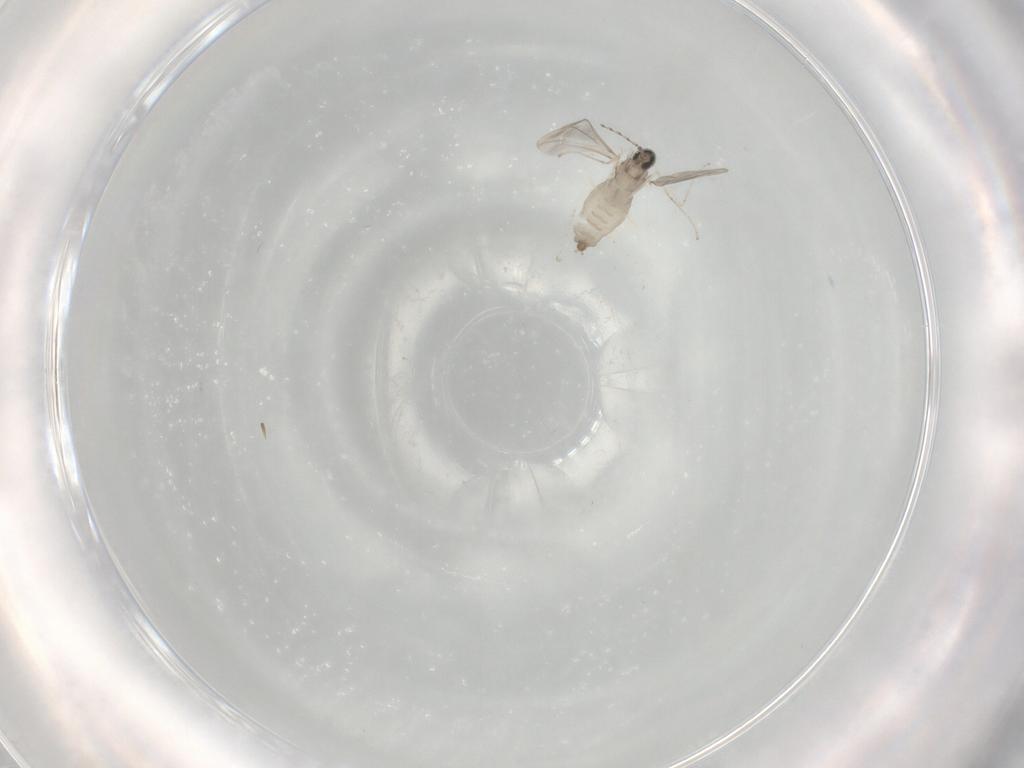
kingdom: Animalia
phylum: Arthropoda
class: Insecta
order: Diptera
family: Cecidomyiidae
